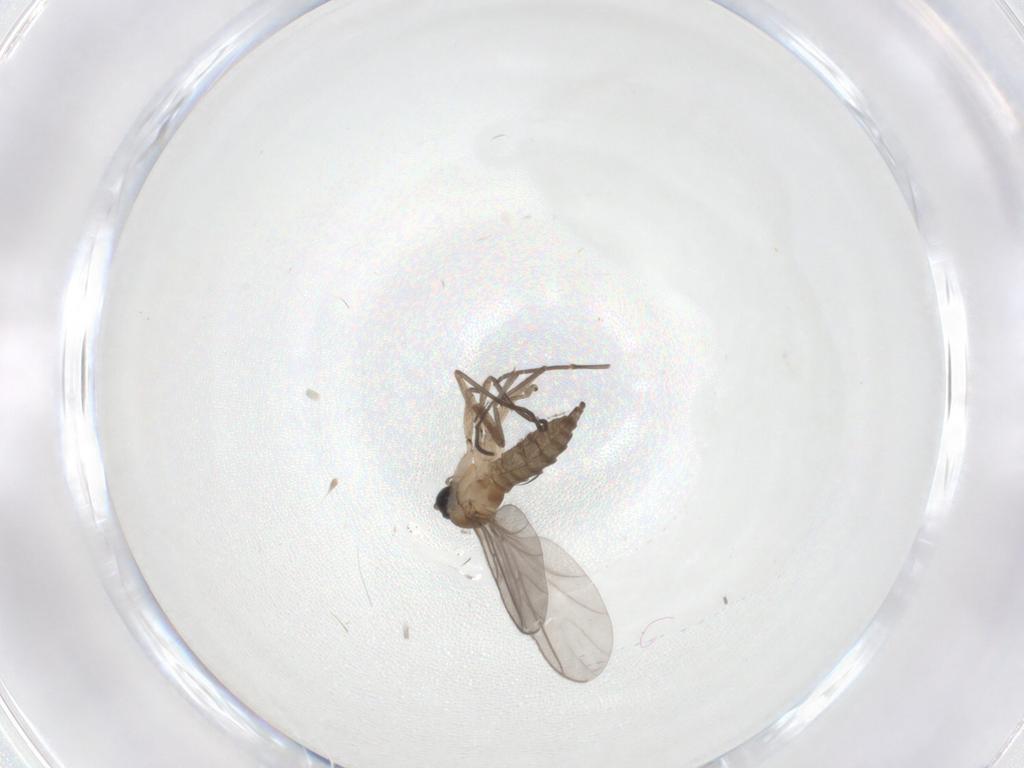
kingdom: Animalia
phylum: Arthropoda
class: Insecta
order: Diptera
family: Sciaridae
